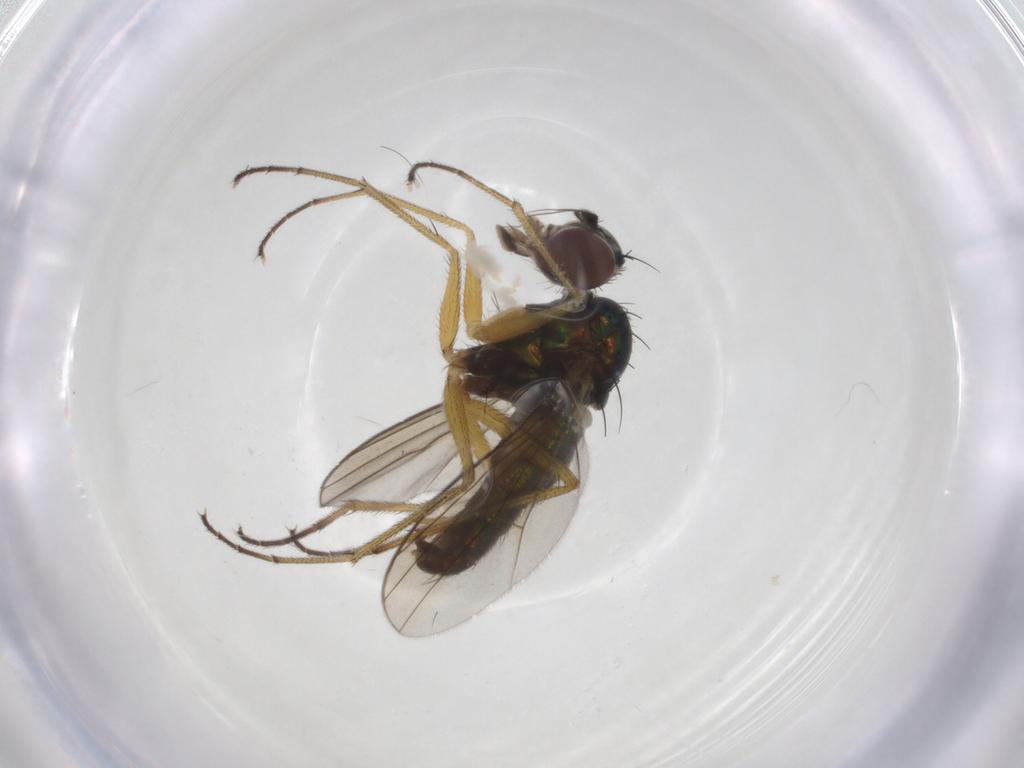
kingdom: Animalia
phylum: Arthropoda
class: Insecta
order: Diptera
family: Dolichopodidae
